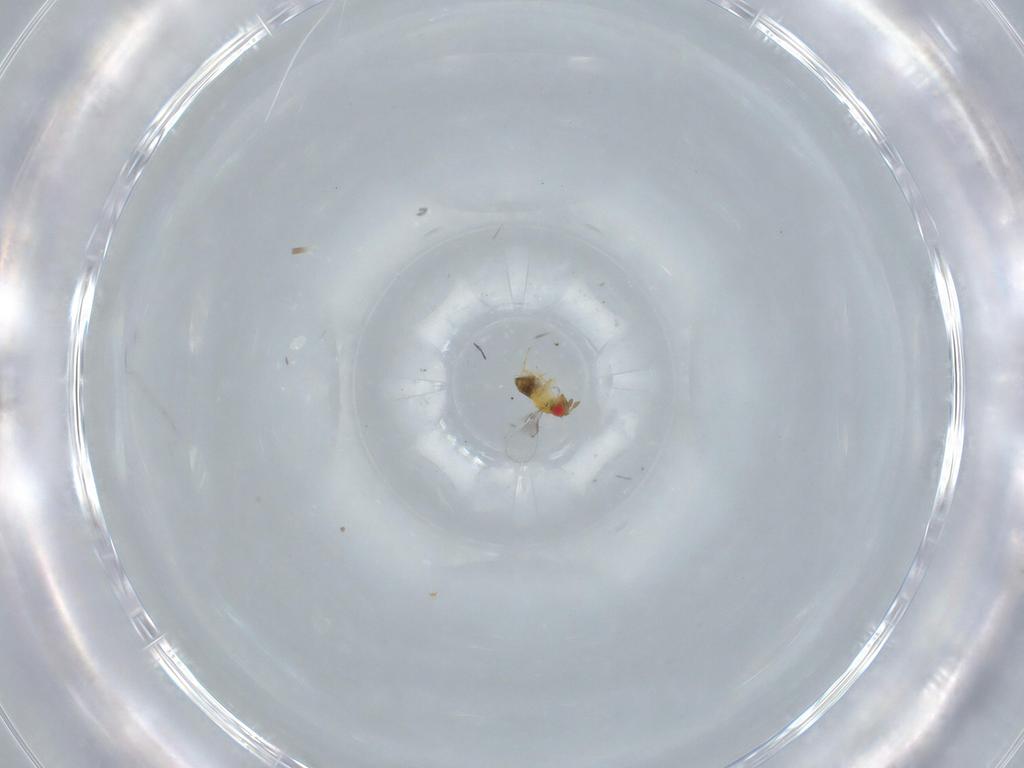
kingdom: Animalia
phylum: Arthropoda
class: Insecta
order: Hymenoptera
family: Trichogrammatidae
